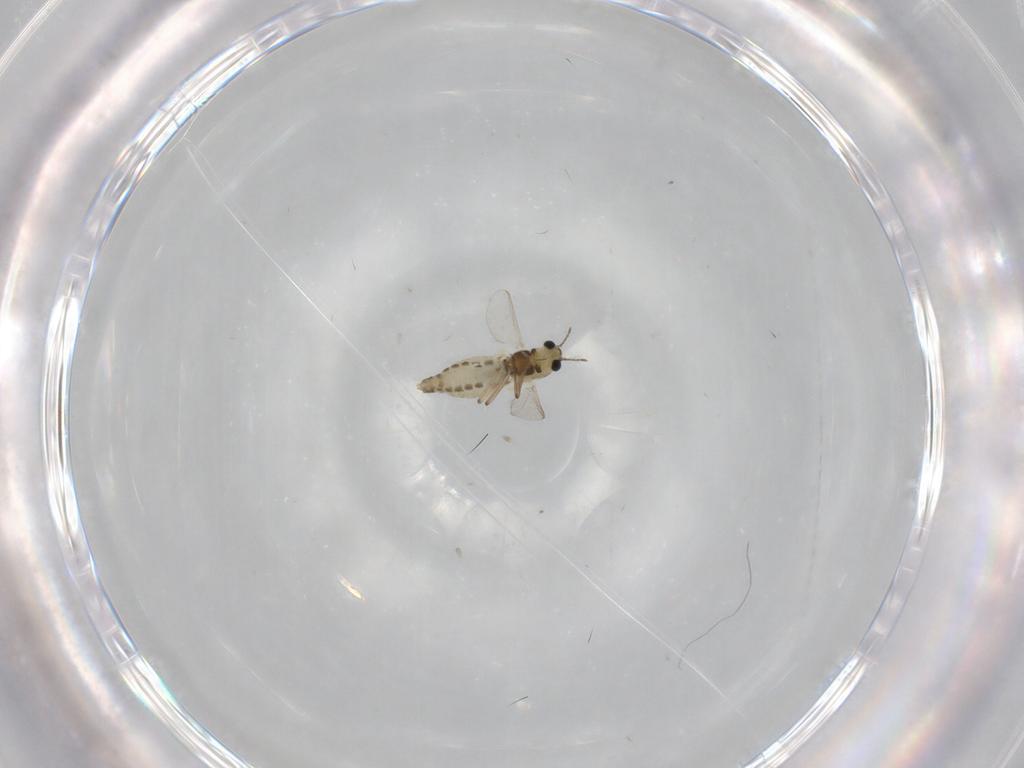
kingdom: Animalia
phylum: Arthropoda
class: Insecta
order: Diptera
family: Chironomidae
